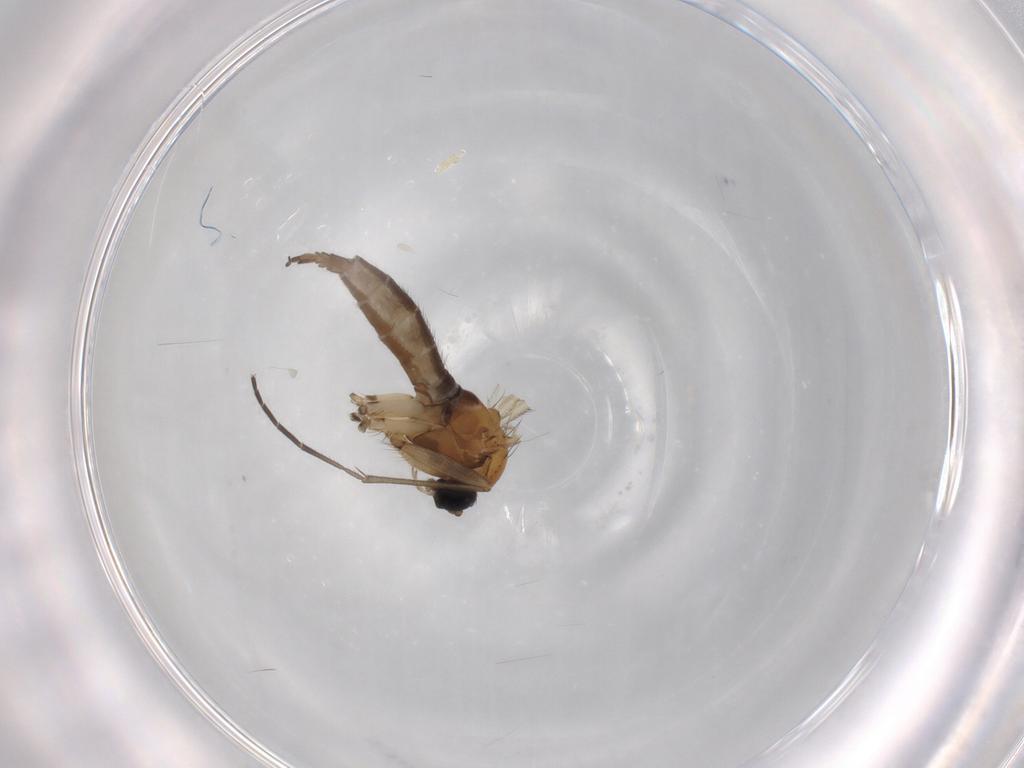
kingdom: Animalia
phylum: Arthropoda
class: Insecta
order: Diptera
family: Sciaridae
